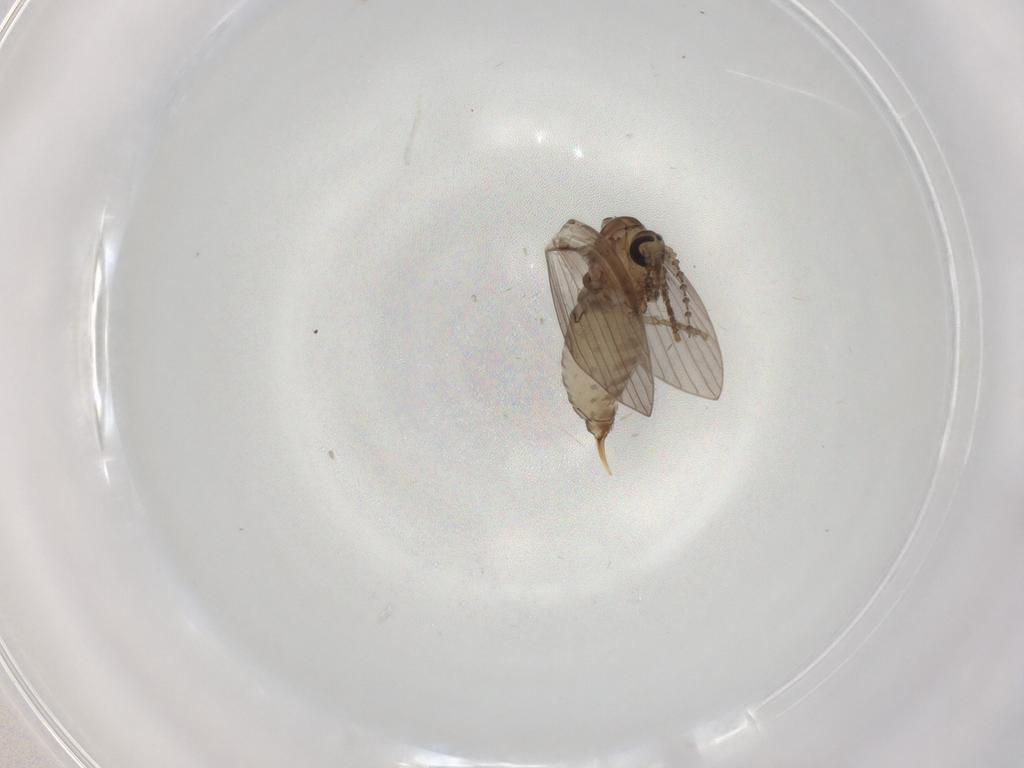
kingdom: Animalia
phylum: Arthropoda
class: Insecta
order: Diptera
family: Psychodidae
